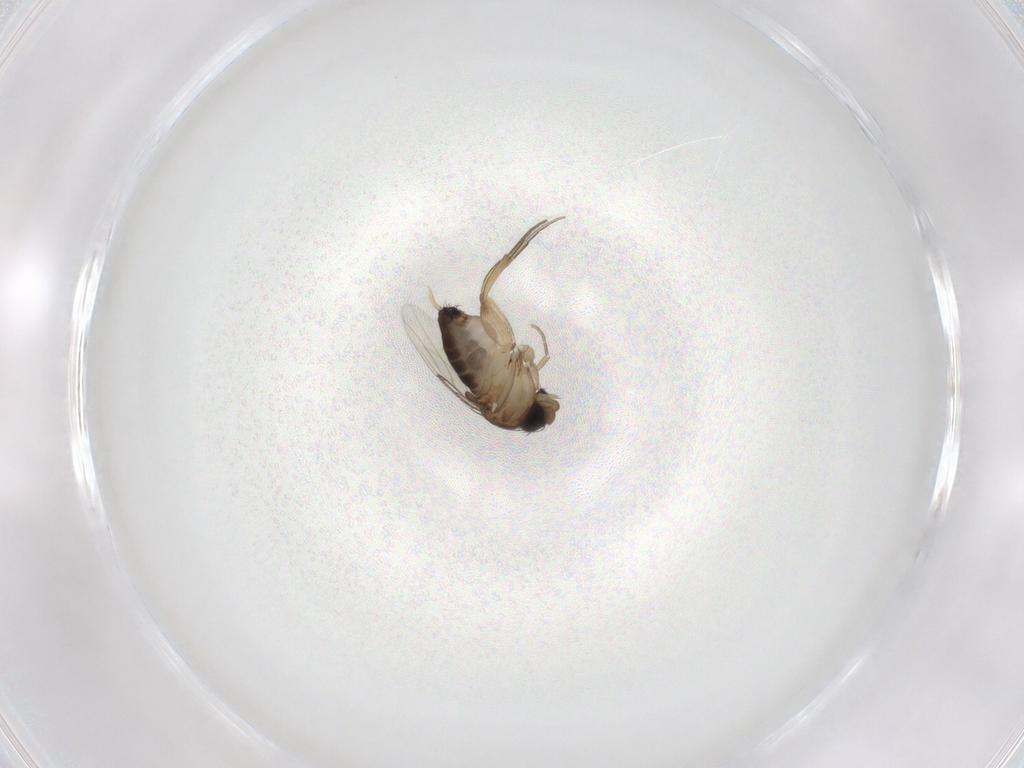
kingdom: Animalia
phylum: Arthropoda
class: Insecta
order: Diptera
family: Phoridae
